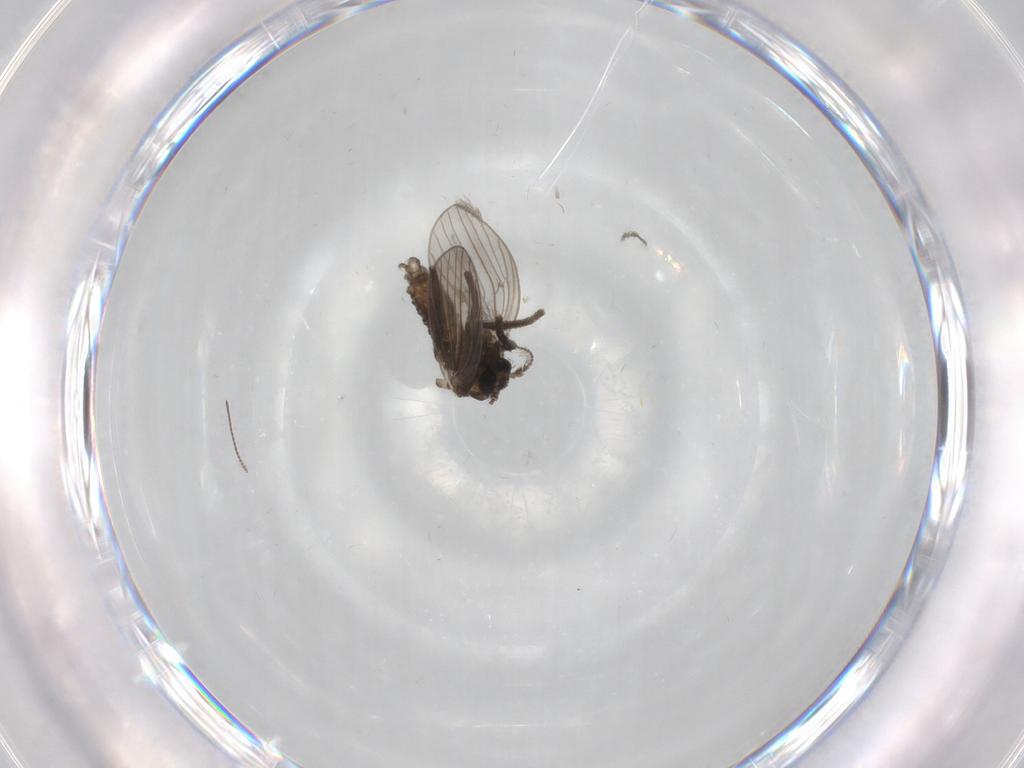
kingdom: Animalia
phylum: Arthropoda
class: Insecta
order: Diptera
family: Psychodidae
